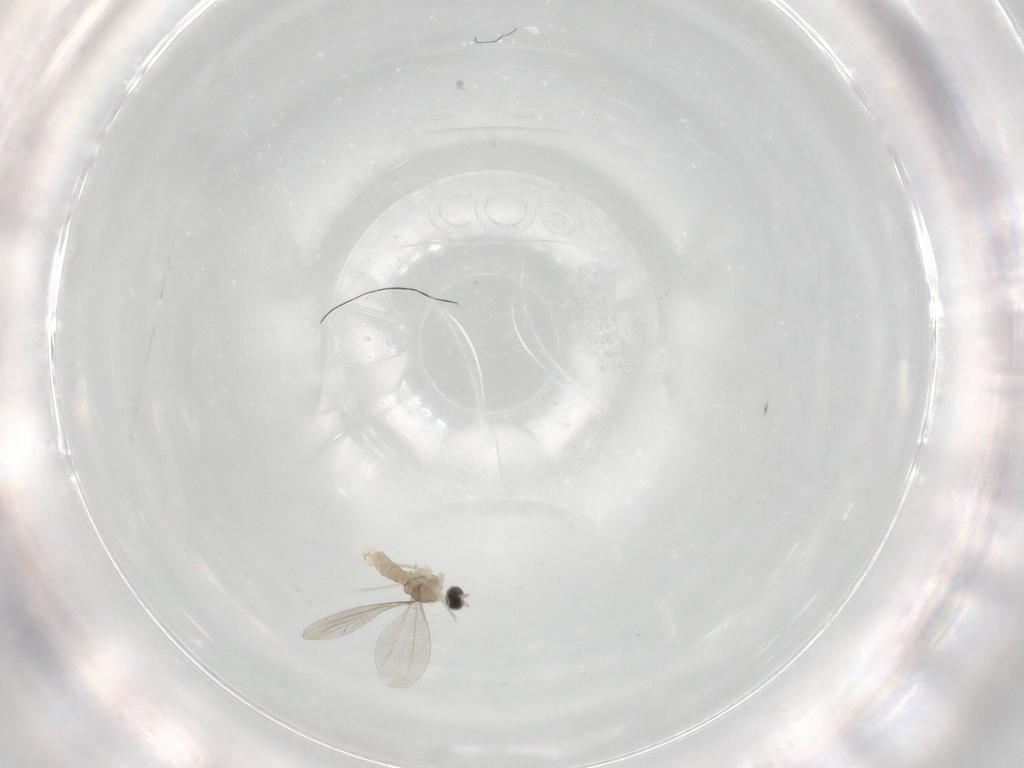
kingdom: Animalia
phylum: Arthropoda
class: Insecta
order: Diptera
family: Cecidomyiidae
